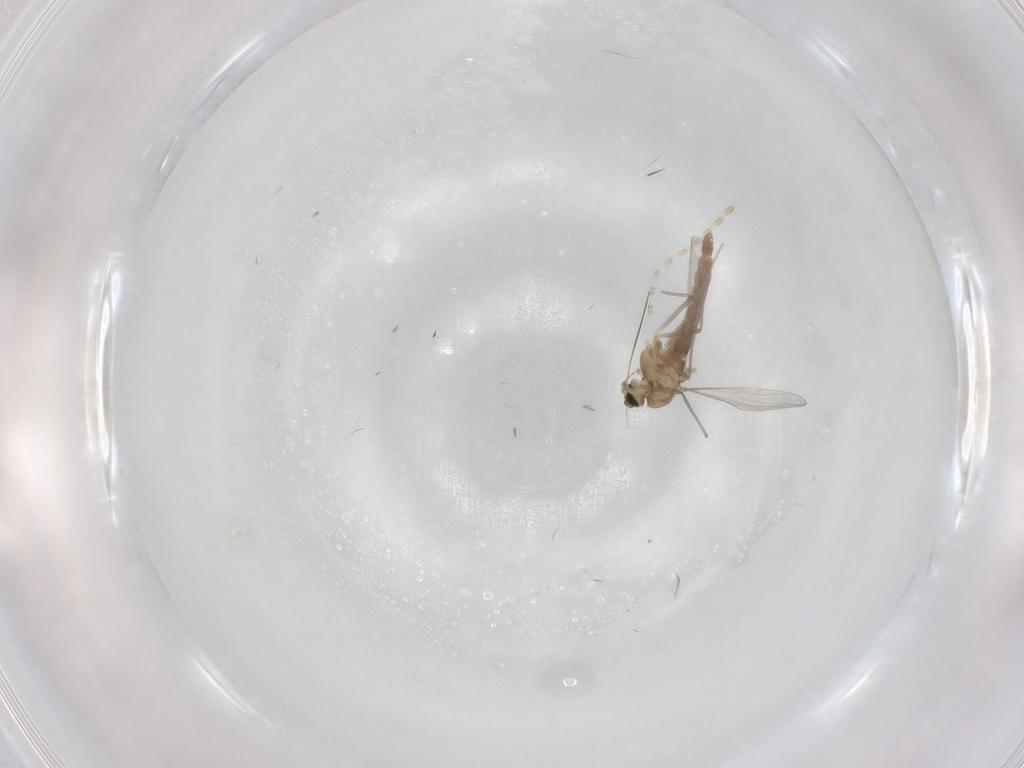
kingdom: Animalia
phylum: Arthropoda
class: Insecta
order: Diptera
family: Chironomidae
